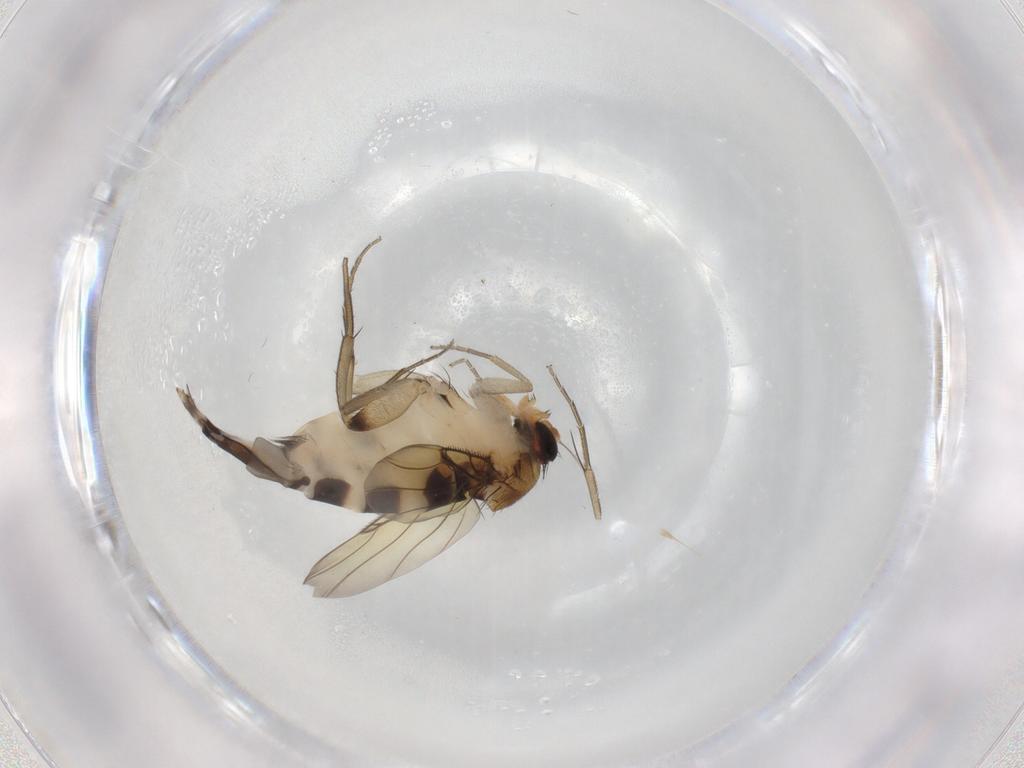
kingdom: Animalia
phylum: Arthropoda
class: Insecta
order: Diptera
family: Phoridae
